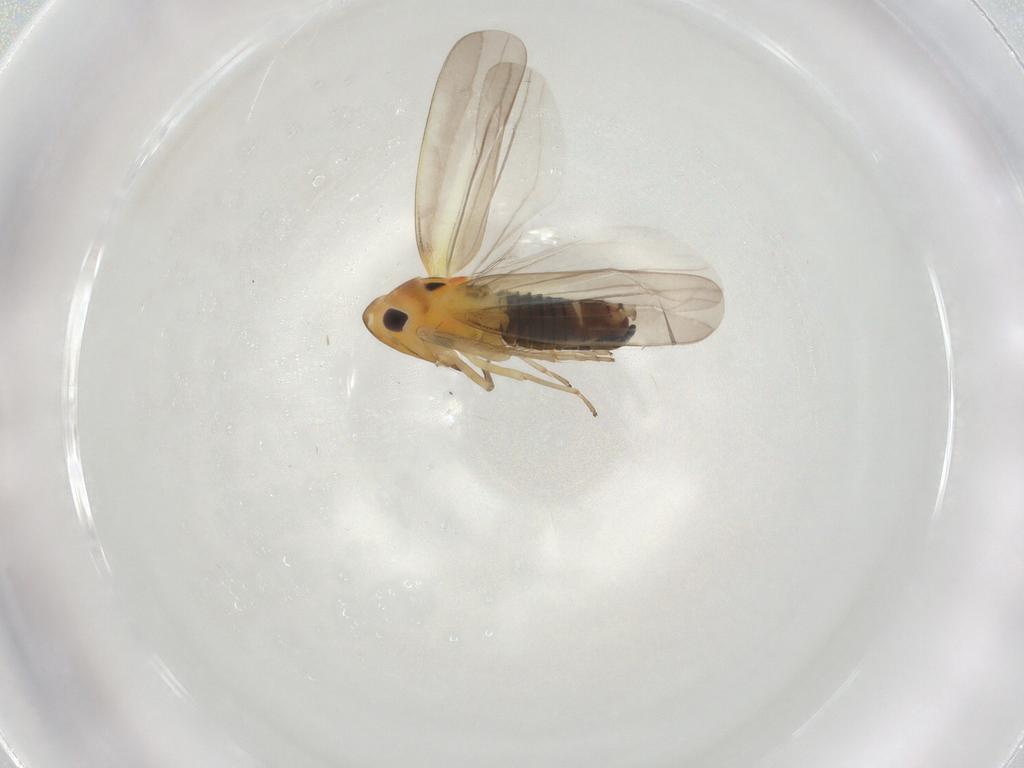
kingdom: Animalia
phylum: Arthropoda
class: Insecta
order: Hemiptera
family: Cicadellidae
